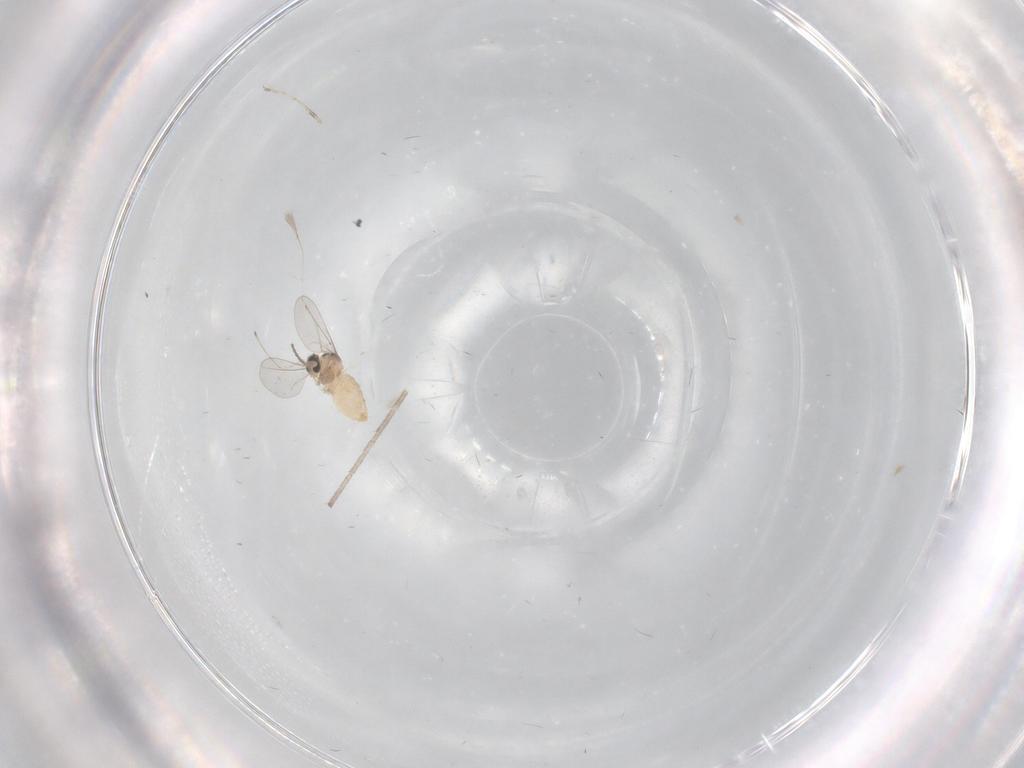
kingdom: Animalia
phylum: Arthropoda
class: Insecta
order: Diptera
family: Cecidomyiidae
